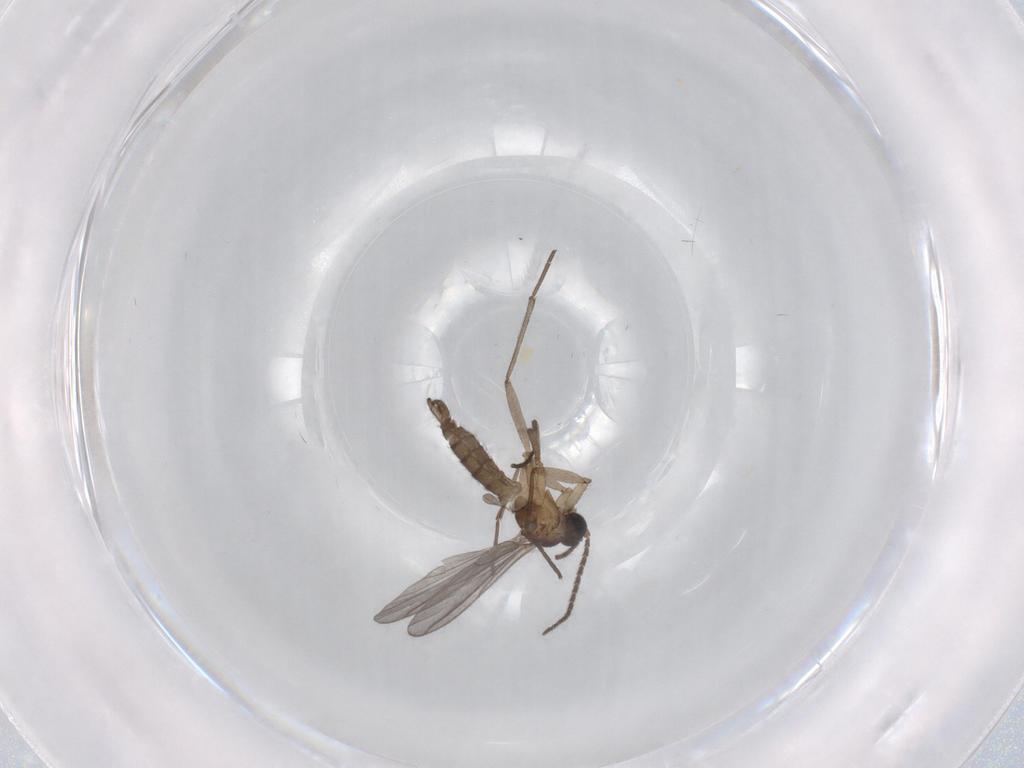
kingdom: Animalia
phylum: Arthropoda
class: Insecta
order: Diptera
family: Sciaridae
